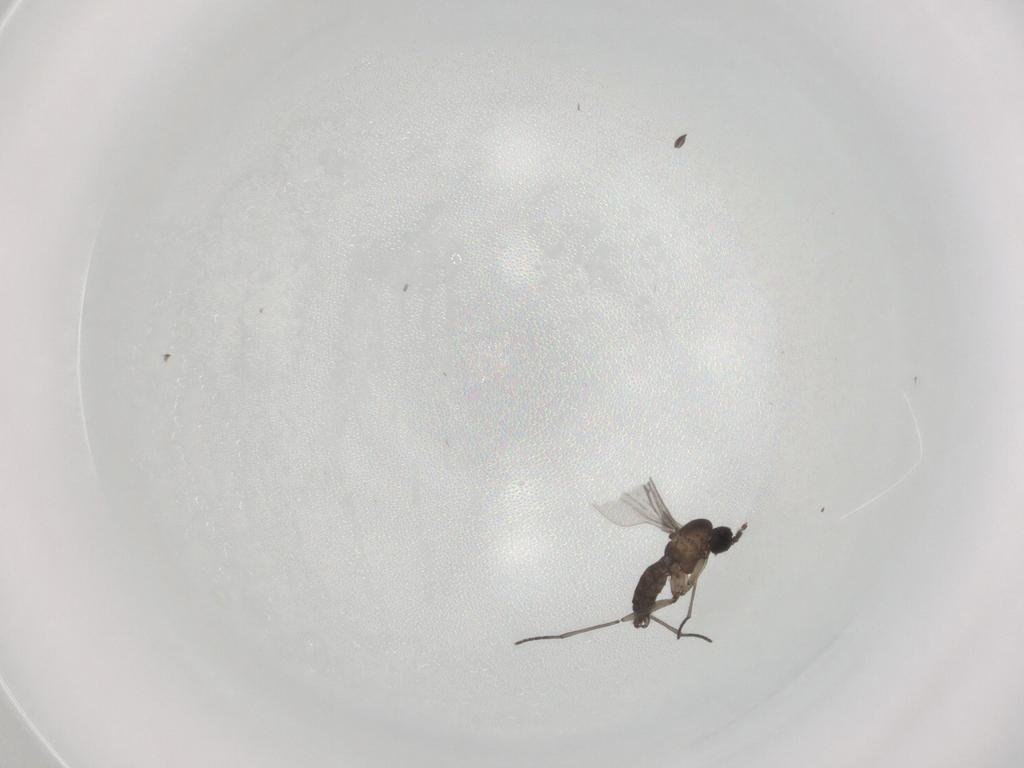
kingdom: Animalia
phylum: Arthropoda
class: Insecta
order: Diptera
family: Sciaridae
